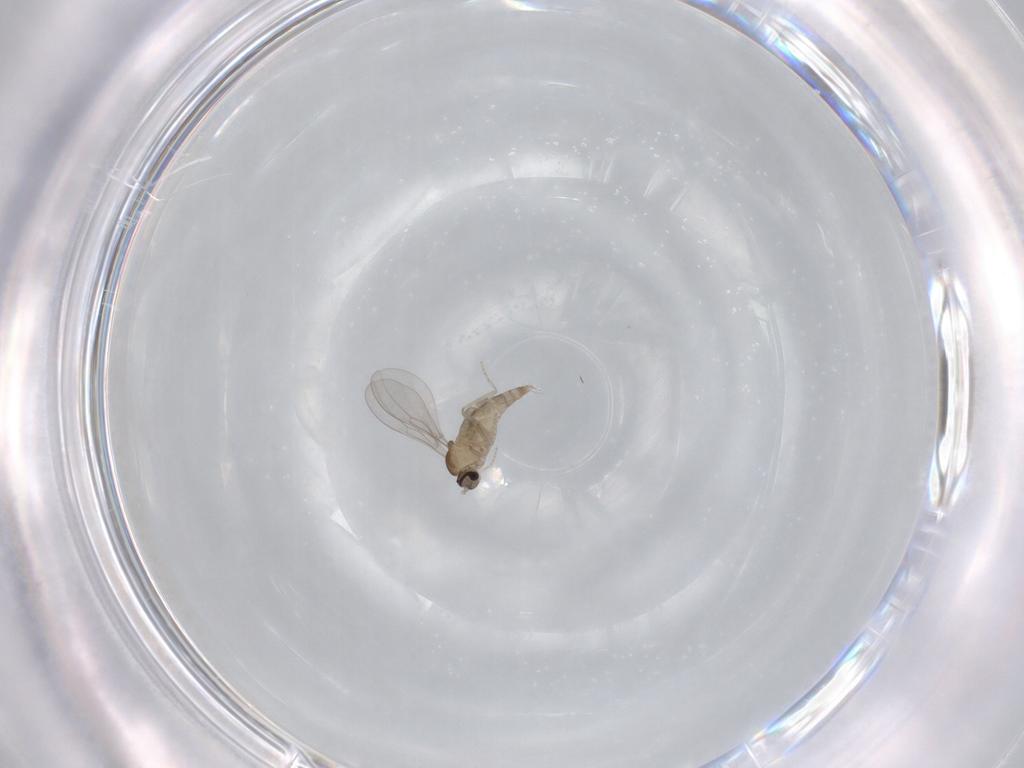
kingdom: Animalia
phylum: Arthropoda
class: Insecta
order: Diptera
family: Cecidomyiidae
